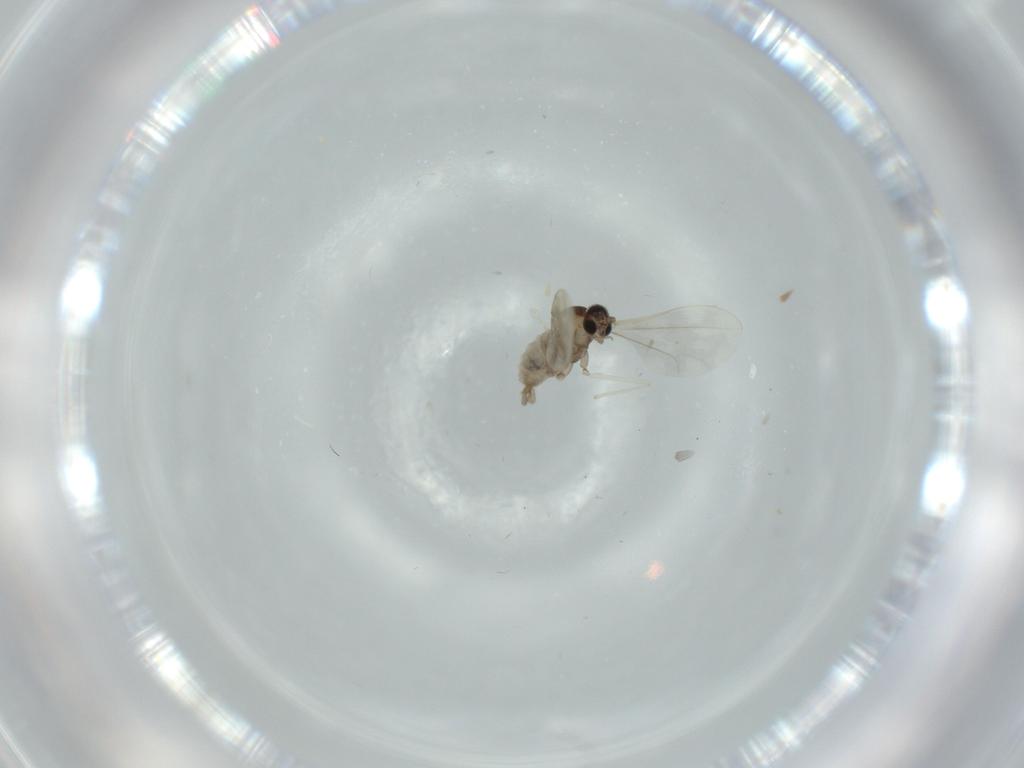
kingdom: Animalia
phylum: Arthropoda
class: Insecta
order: Diptera
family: Cecidomyiidae
